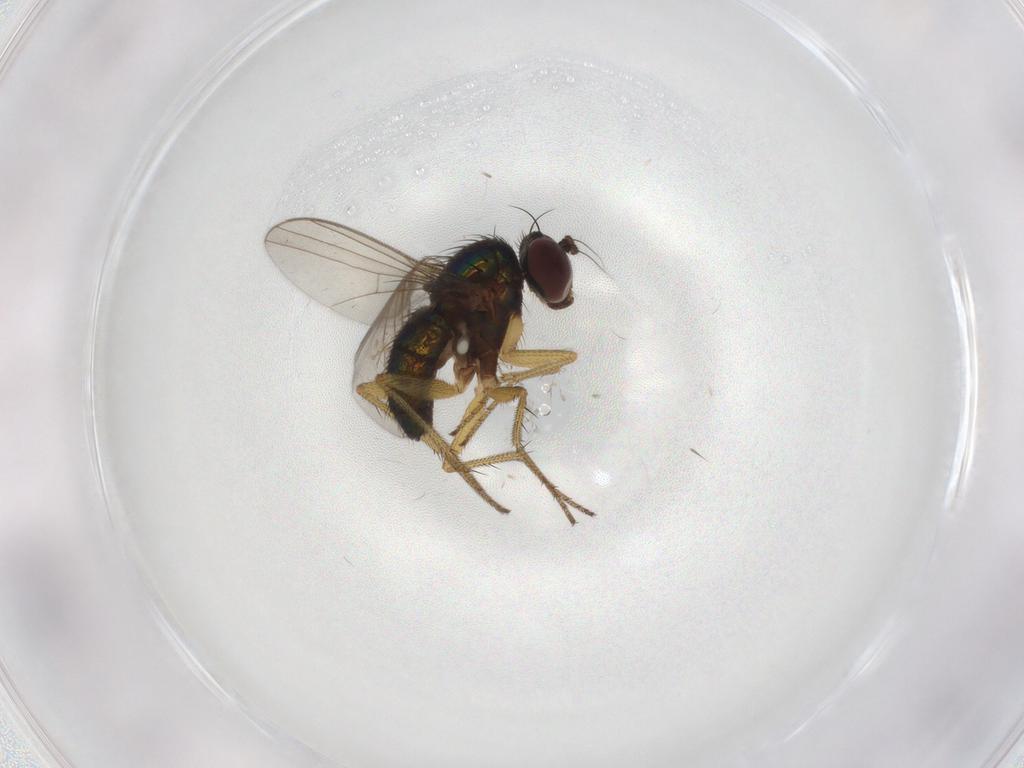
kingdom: Animalia
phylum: Arthropoda
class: Insecta
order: Diptera
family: Dolichopodidae
